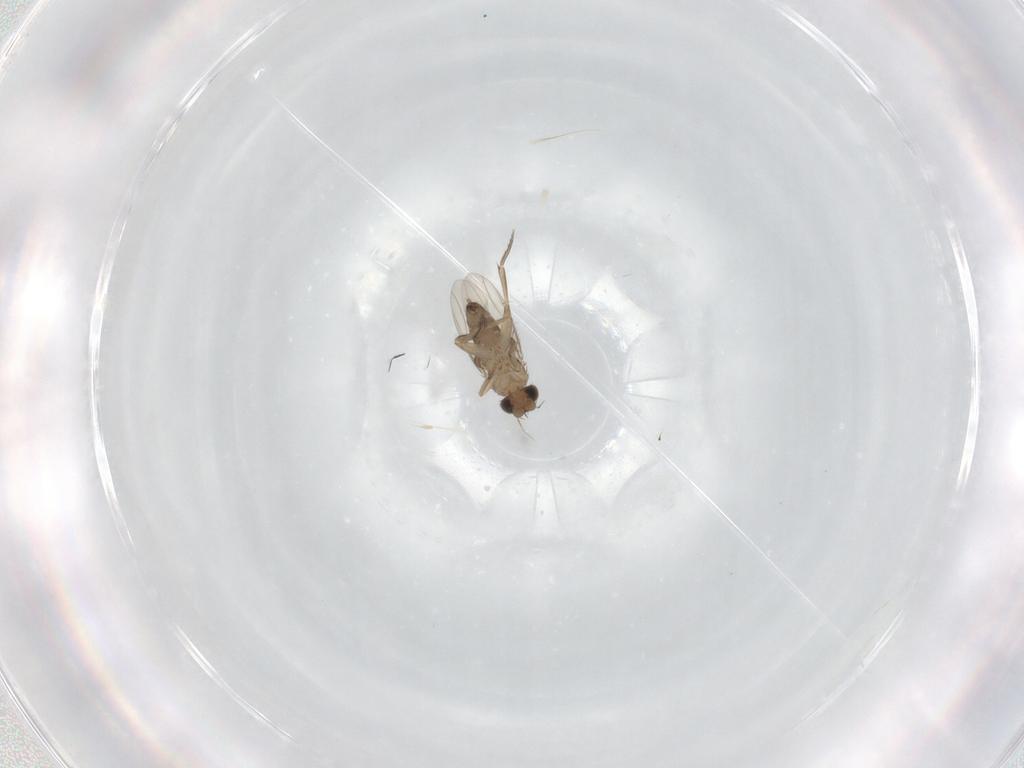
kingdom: Animalia
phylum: Arthropoda
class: Insecta
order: Diptera
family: Phoridae
